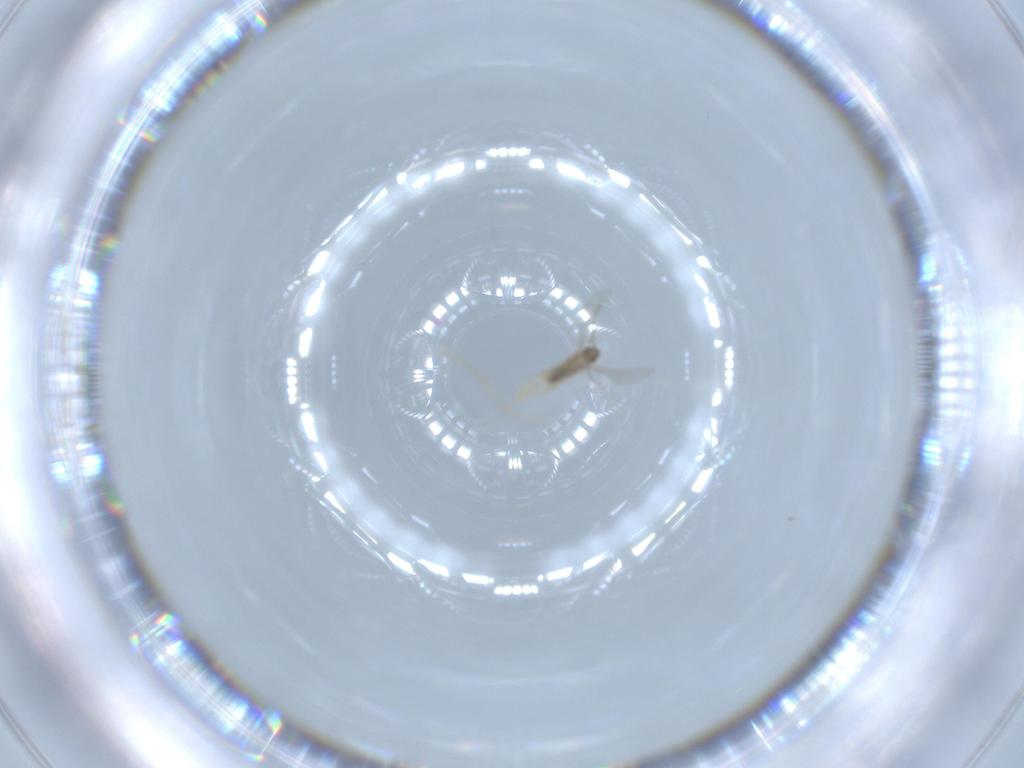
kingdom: Animalia
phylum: Arthropoda
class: Insecta
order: Diptera
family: Cecidomyiidae
